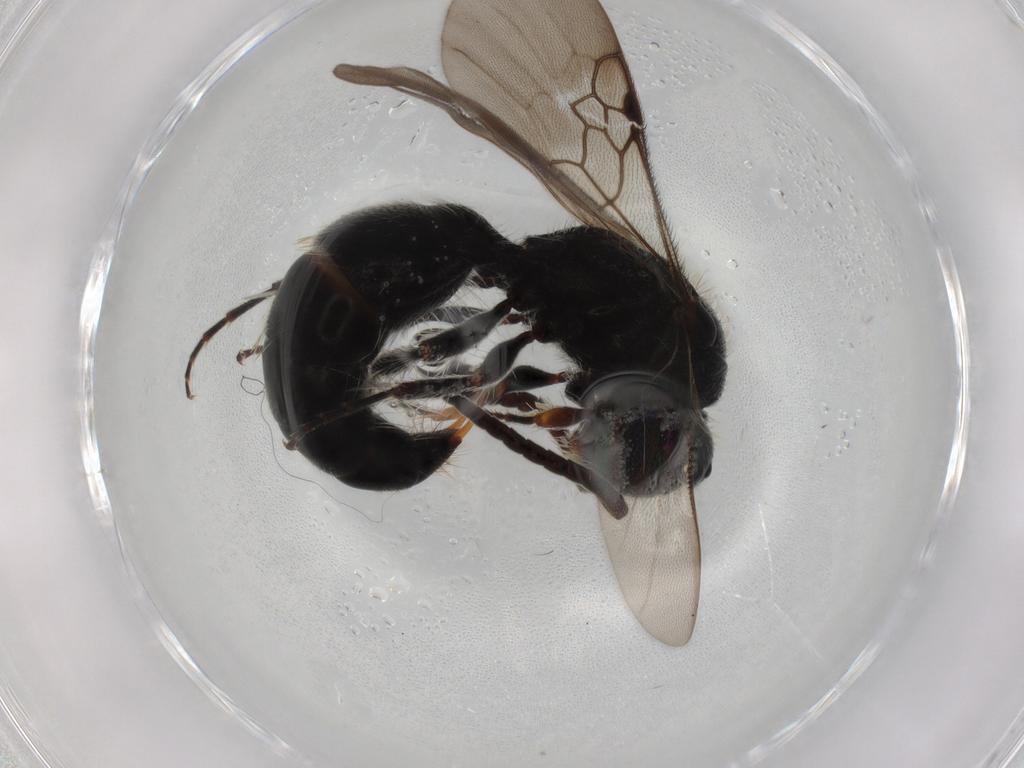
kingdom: Animalia
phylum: Arthropoda
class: Insecta
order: Hymenoptera
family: Mutillidae
